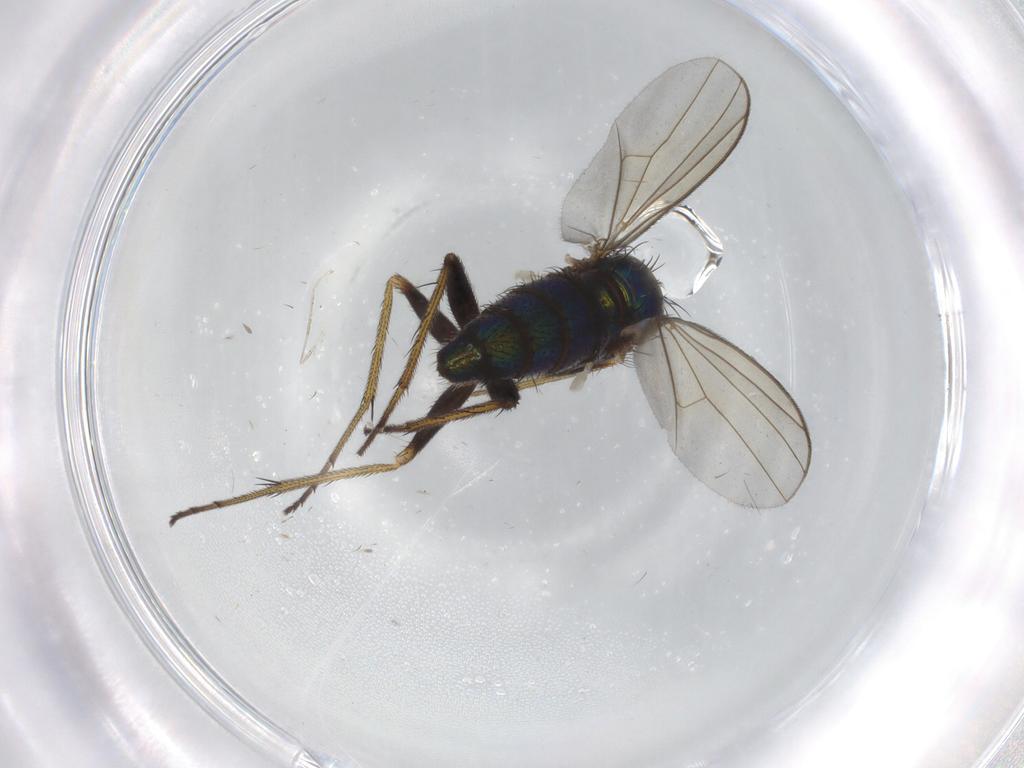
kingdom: Animalia
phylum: Arthropoda
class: Insecta
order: Diptera
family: Dolichopodidae
